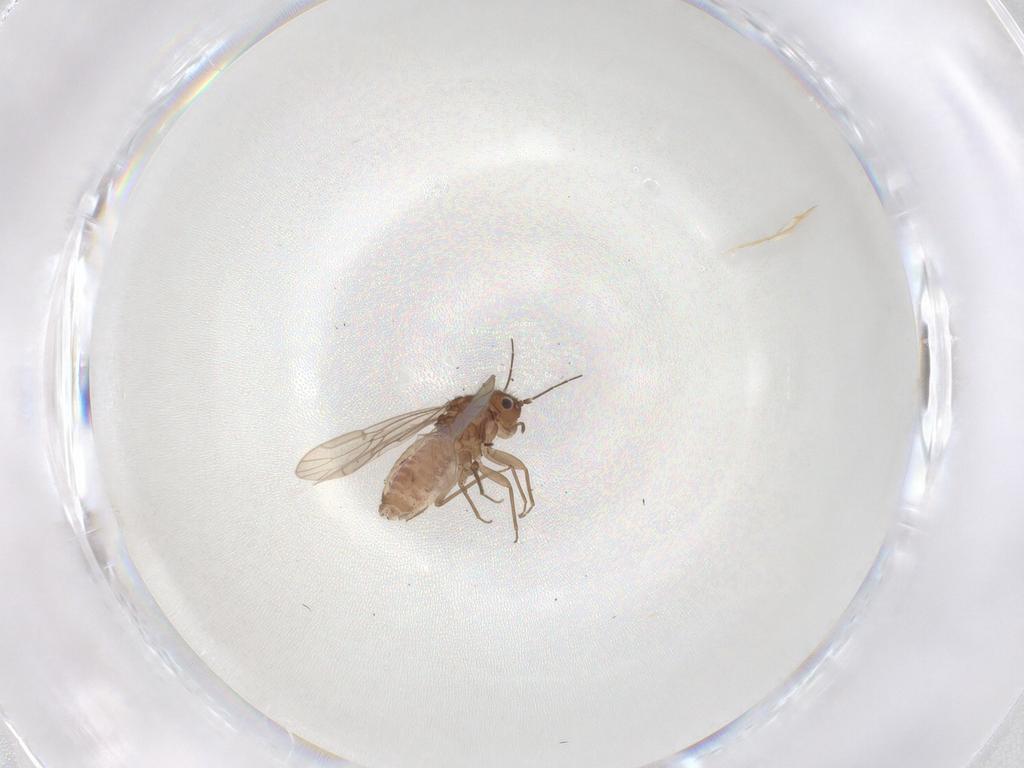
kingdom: Animalia
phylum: Arthropoda
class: Insecta
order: Psocodea
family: Ectopsocidae
